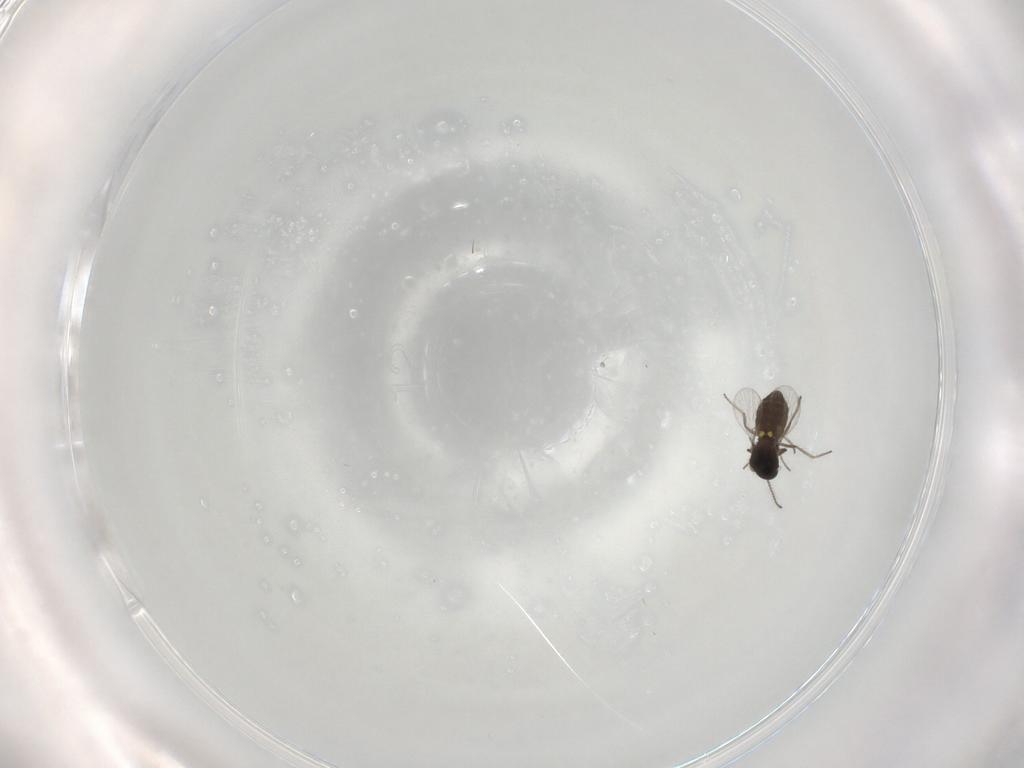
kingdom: Animalia
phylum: Arthropoda
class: Insecta
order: Diptera
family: Ceratopogonidae
